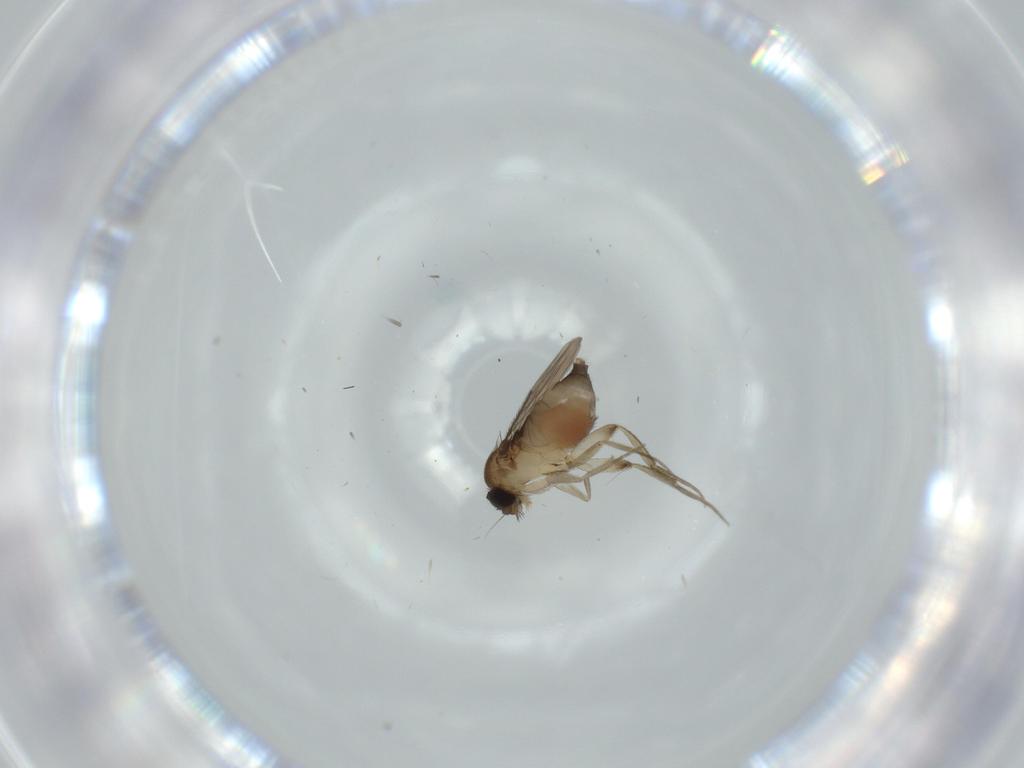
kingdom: Animalia
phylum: Arthropoda
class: Insecta
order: Diptera
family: Phoridae
